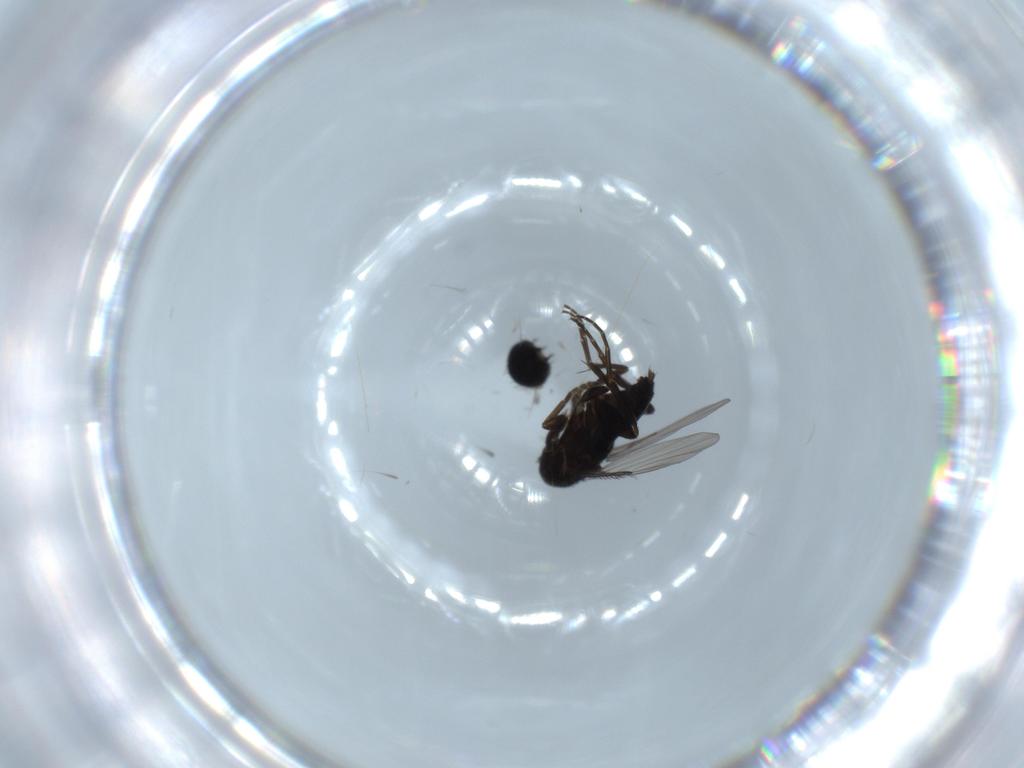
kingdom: Animalia
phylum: Arthropoda
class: Insecta
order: Diptera
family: Phoridae
